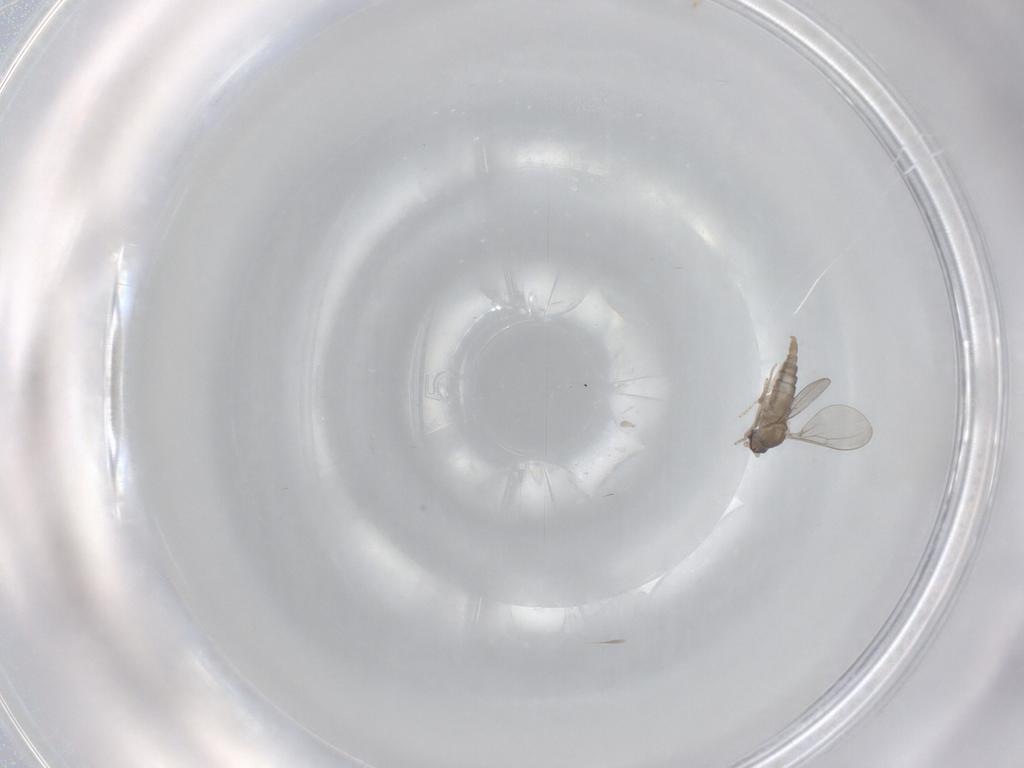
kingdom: Animalia
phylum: Arthropoda
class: Insecta
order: Diptera
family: Cecidomyiidae
